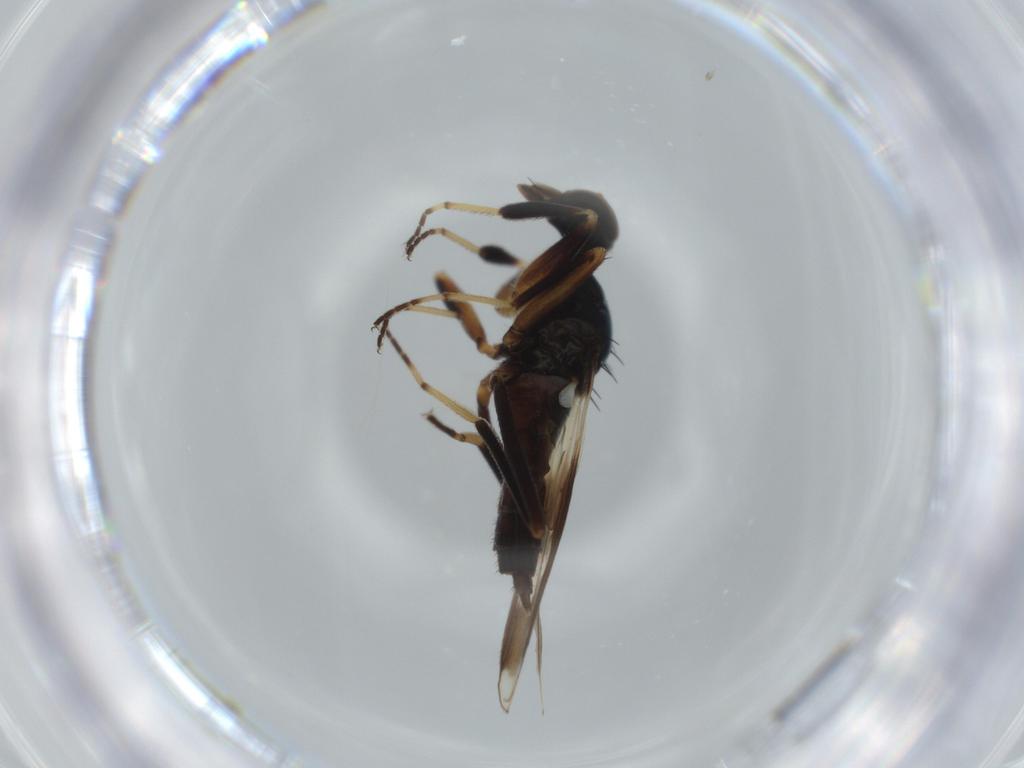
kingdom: Animalia
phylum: Arthropoda
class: Insecta
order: Diptera
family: Hybotidae
